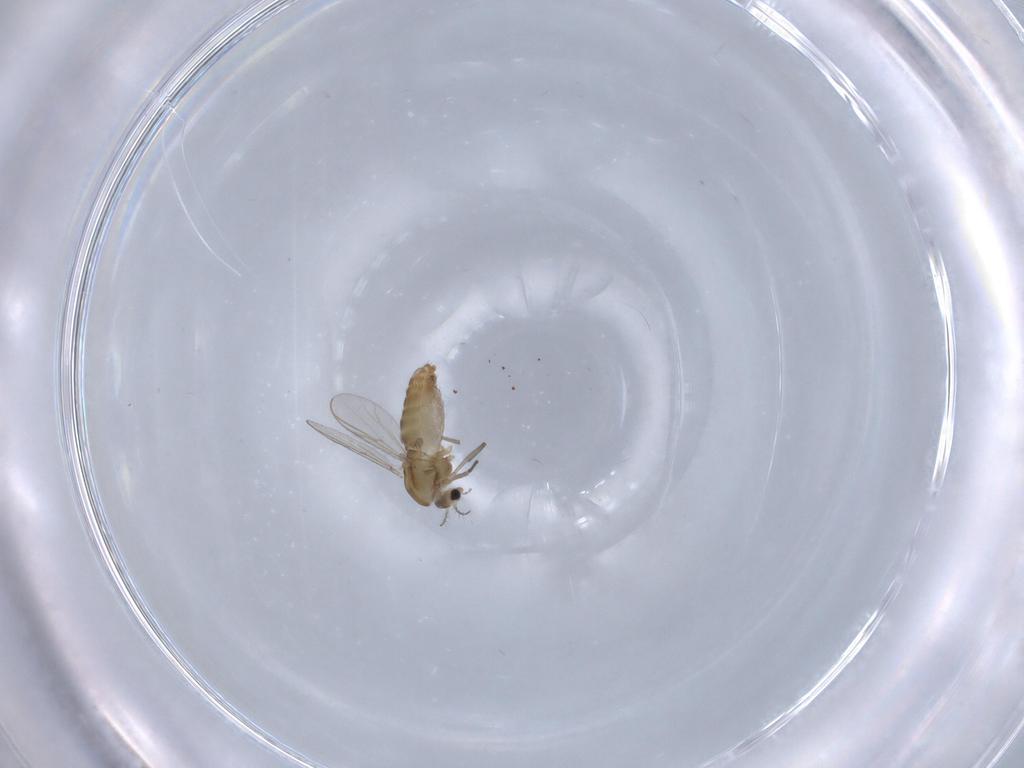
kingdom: Animalia
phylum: Arthropoda
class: Insecta
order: Diptera
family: Chironomidae
